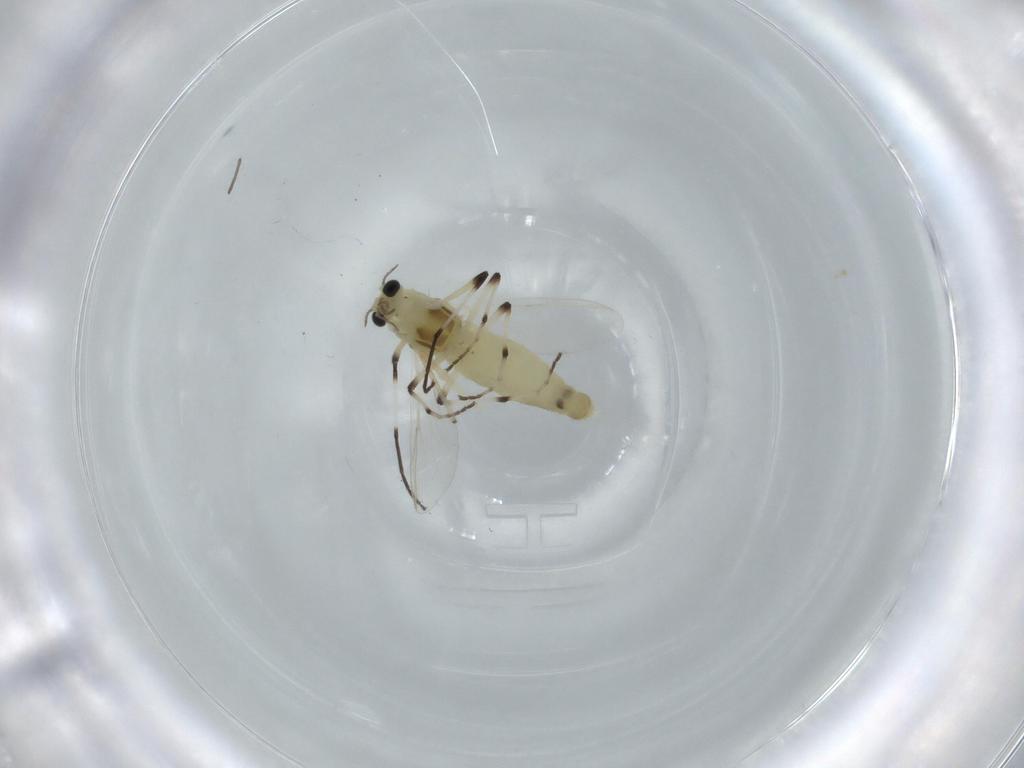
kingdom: Animalia
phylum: Arthropoda
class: Insecta
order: Diptera
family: Chironomidae
